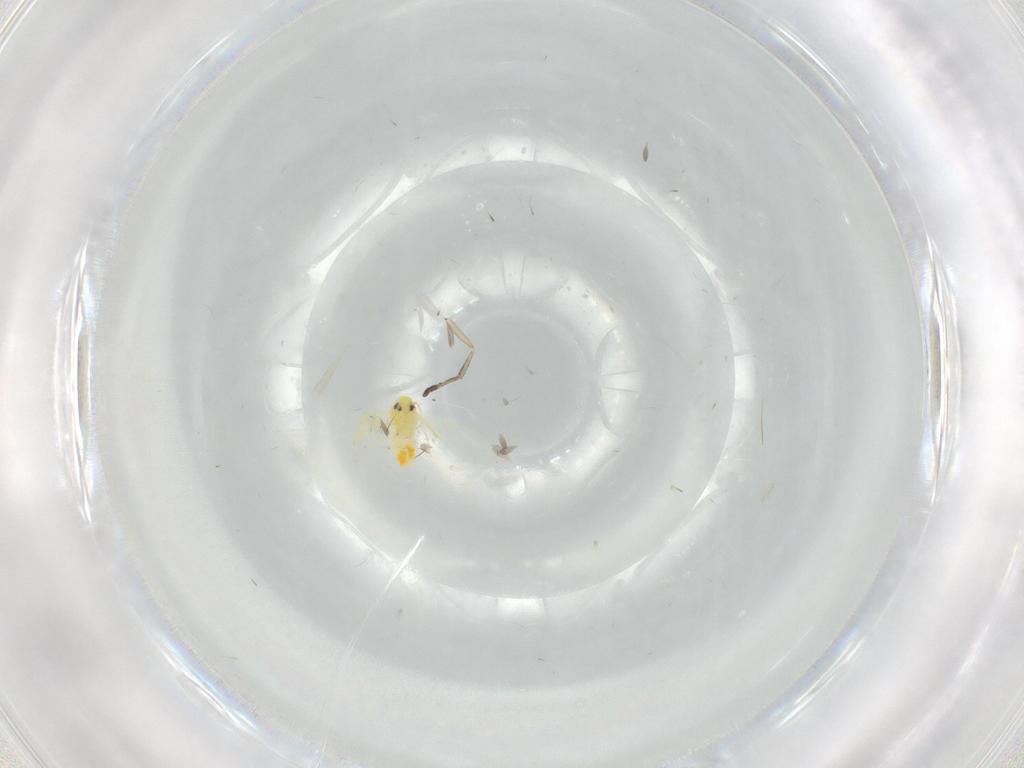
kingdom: Animalia
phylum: Arthropoda
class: Insecta
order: Hemiptera
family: Aleyrodidae
